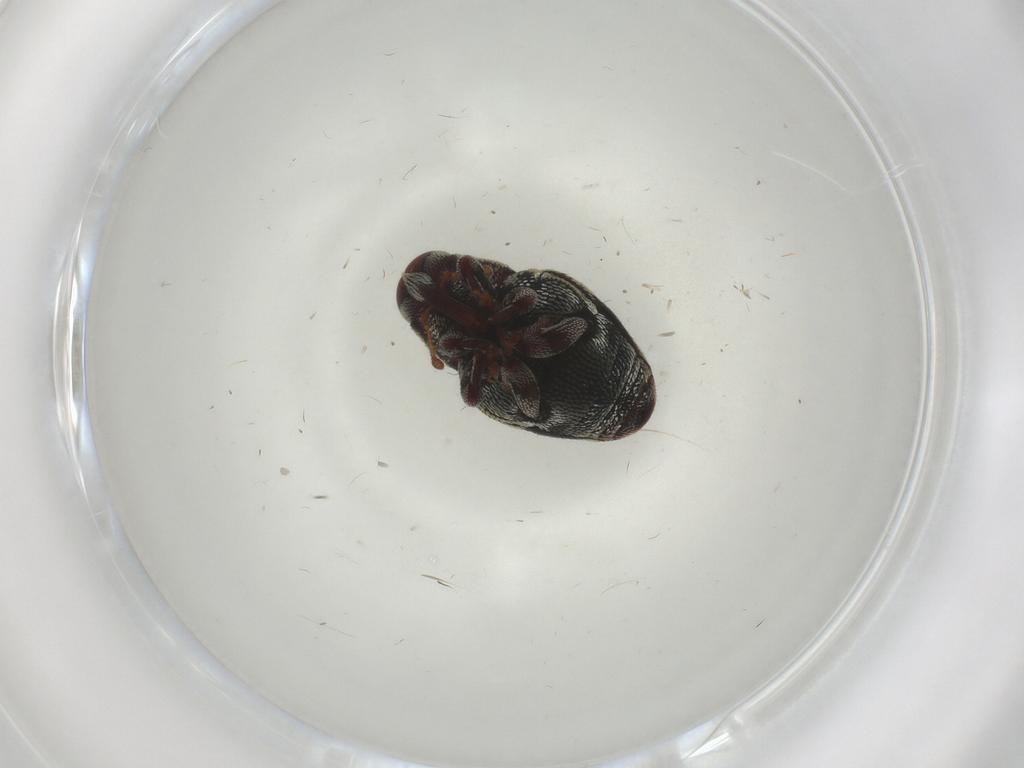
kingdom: Animalia
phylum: Arthropoda
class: Insecta
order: Coleoptera
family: Curculionidae
